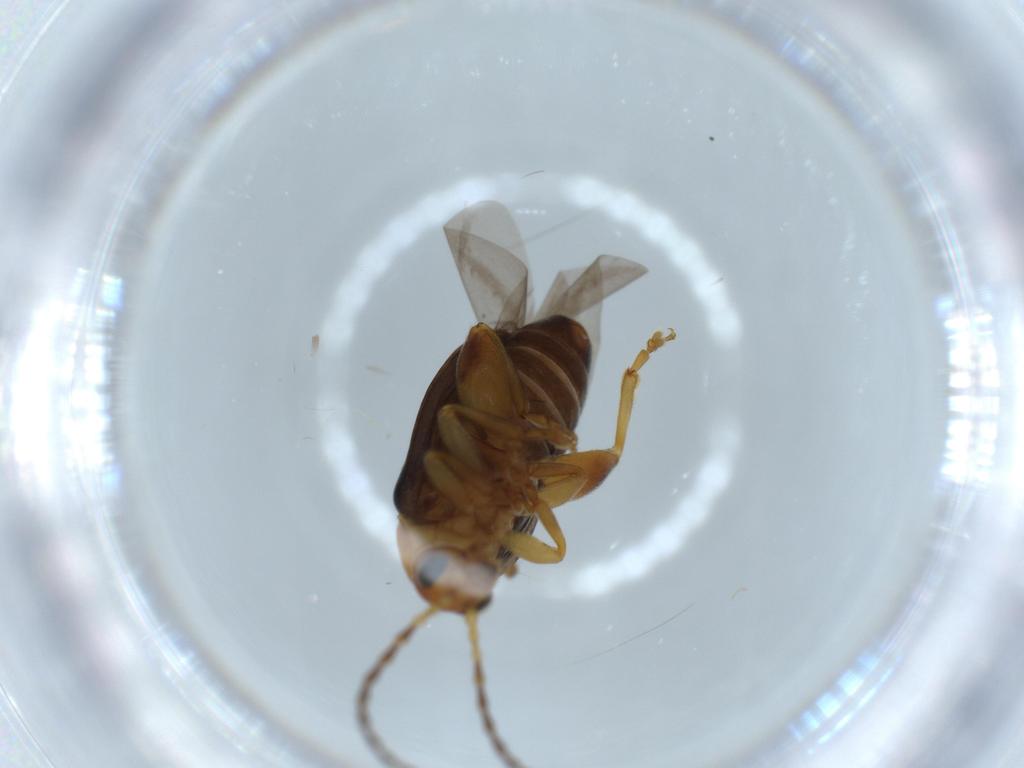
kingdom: Animalia
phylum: Arthropoda
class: Insecta
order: Coleoptera
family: Chrysomelidae
